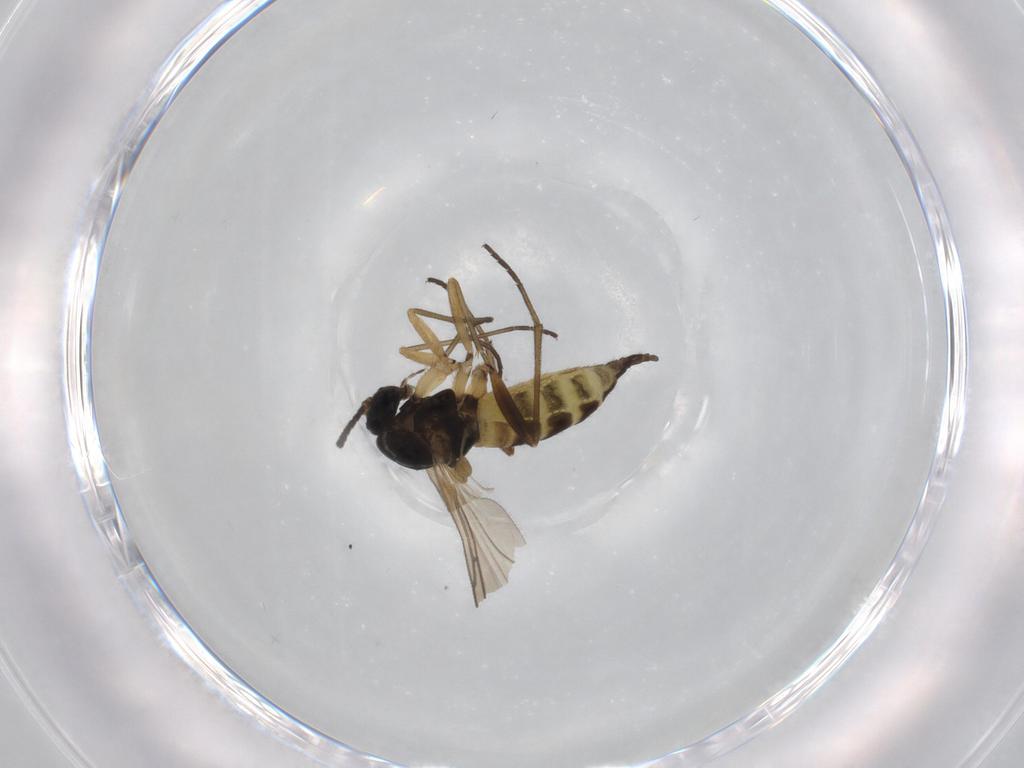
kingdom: Animalia
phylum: Arthropoda
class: Insecta
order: Diptera
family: Sciaridae
